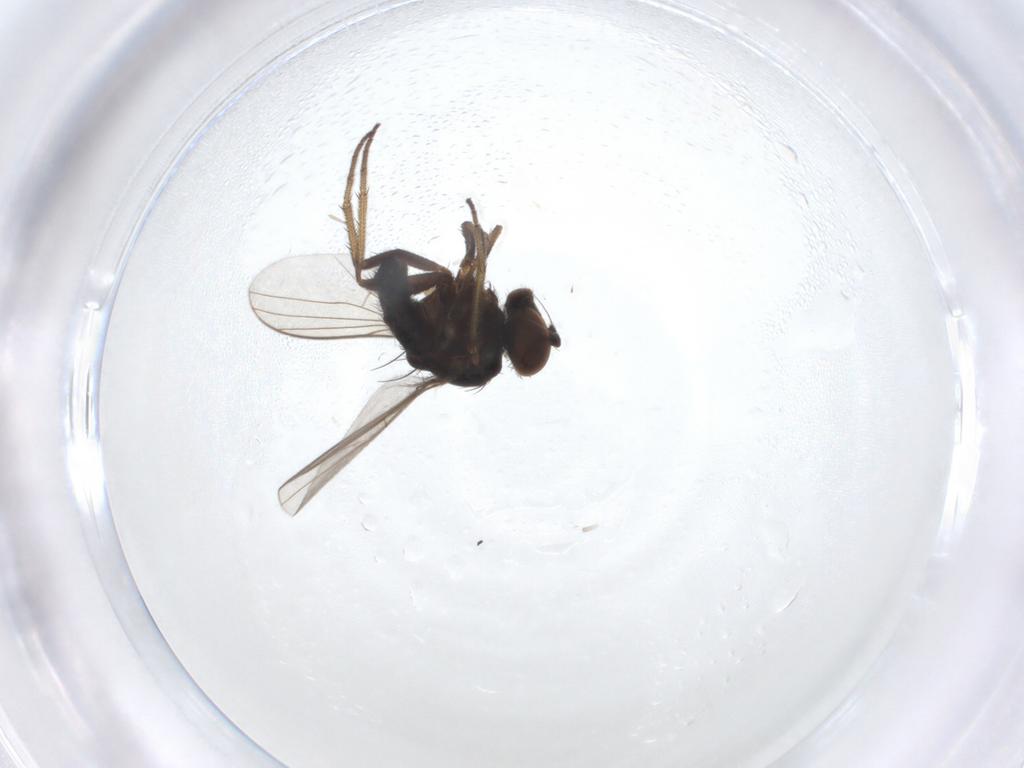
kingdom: Animalia
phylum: Arthropoda
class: Insecta
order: Diptera
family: Dolichopodidae
